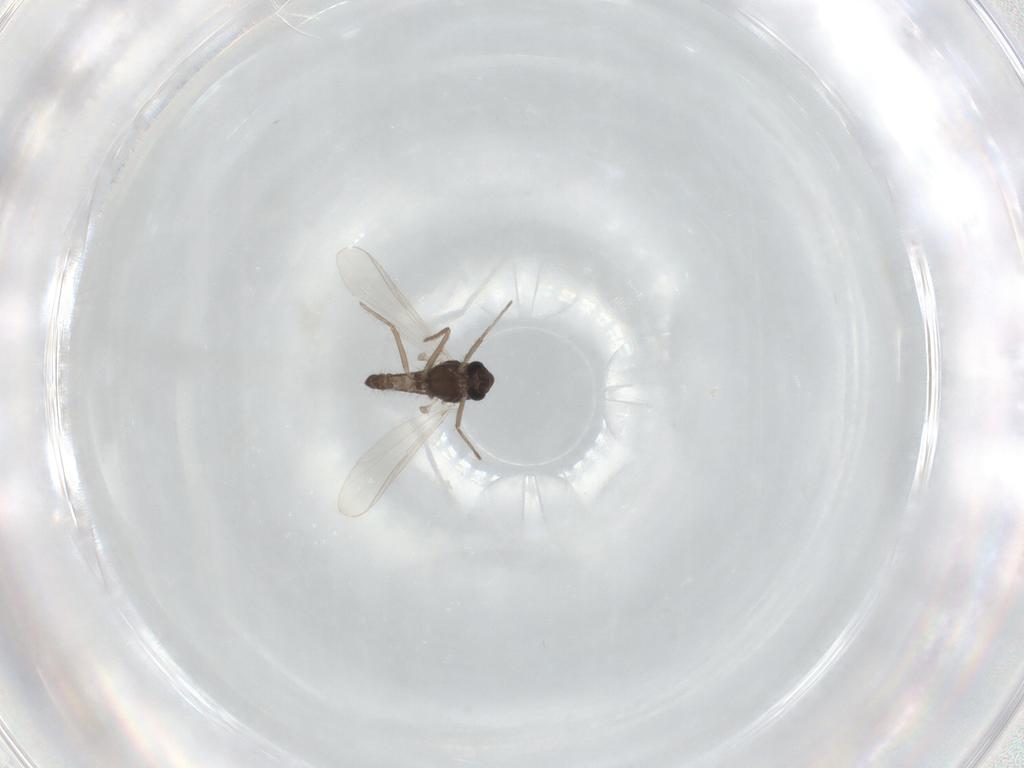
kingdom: Animalia
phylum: Arthropoda
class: Insecta
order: Diptera
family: Chironomidae
